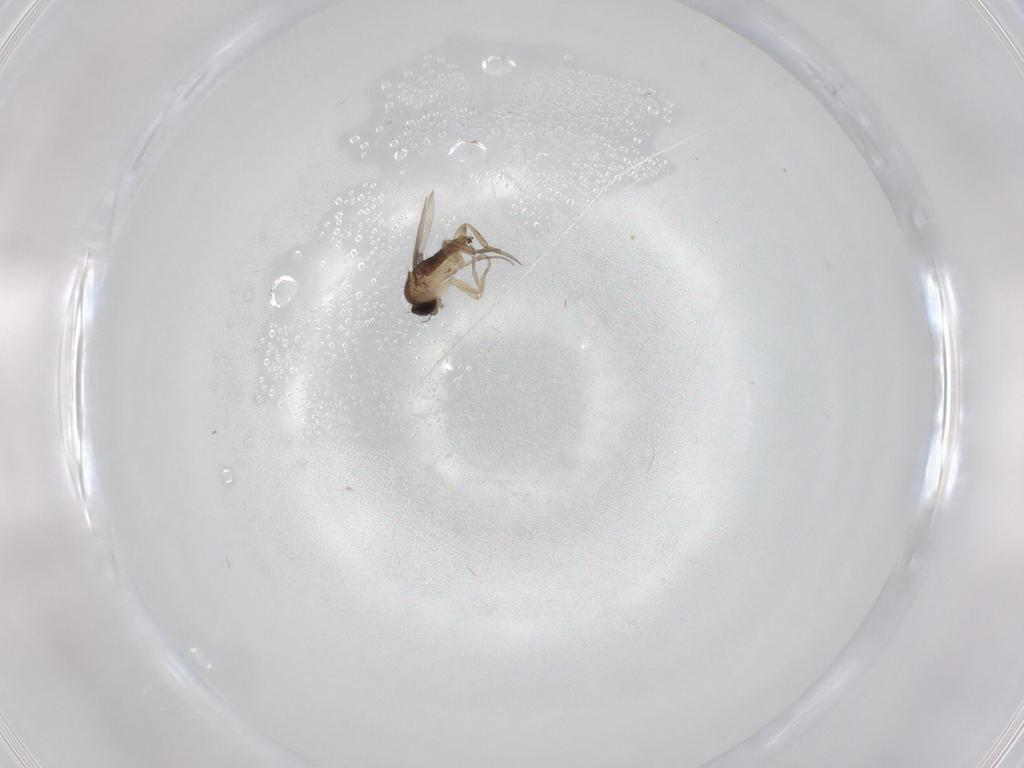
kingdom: Animalia
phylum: Arthropoda
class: Insecta
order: Diptera
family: Phoridae
